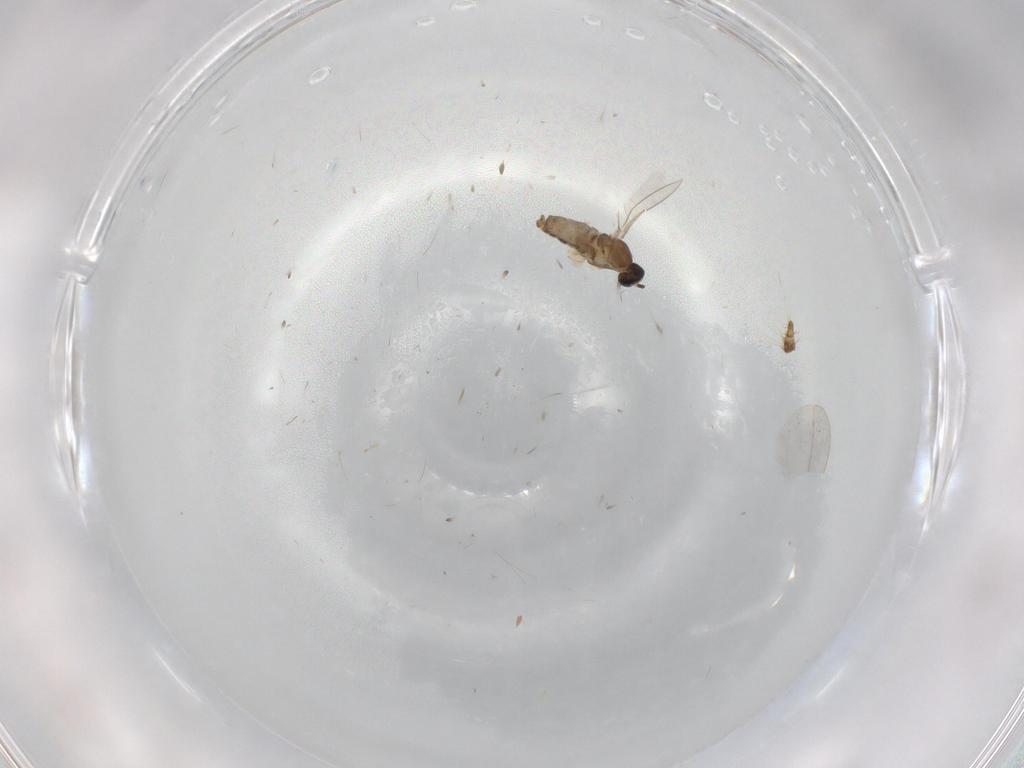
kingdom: Animalia
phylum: Arthropoda
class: Insecta
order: Diptera
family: Cecidomyiidae
